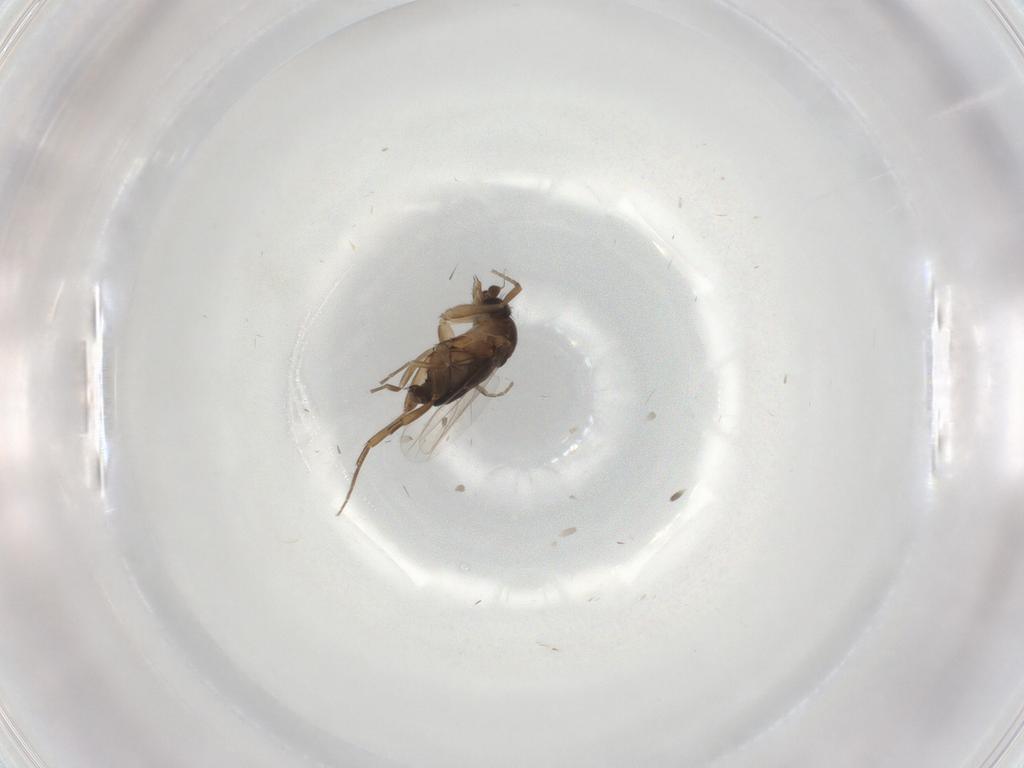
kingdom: Animalia
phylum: Arthropoda
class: Insecta
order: Diptera
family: Phoridae
